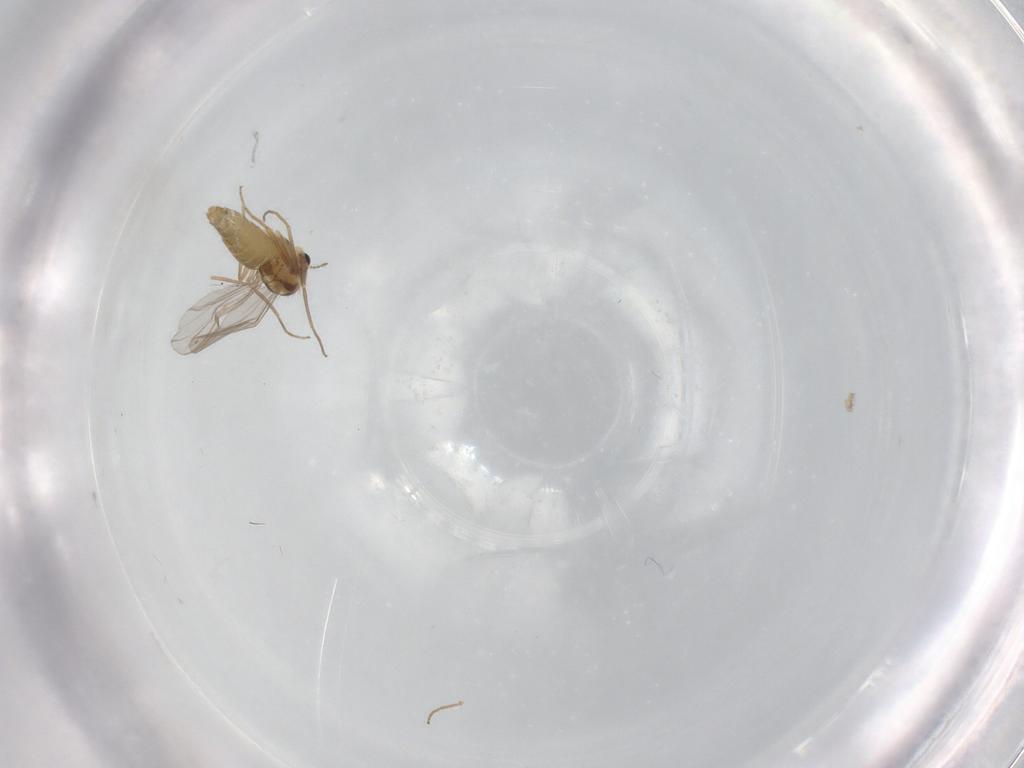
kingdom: Animalia
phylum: Arthropoda
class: Insecta
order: Diptera
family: Chironomidae
